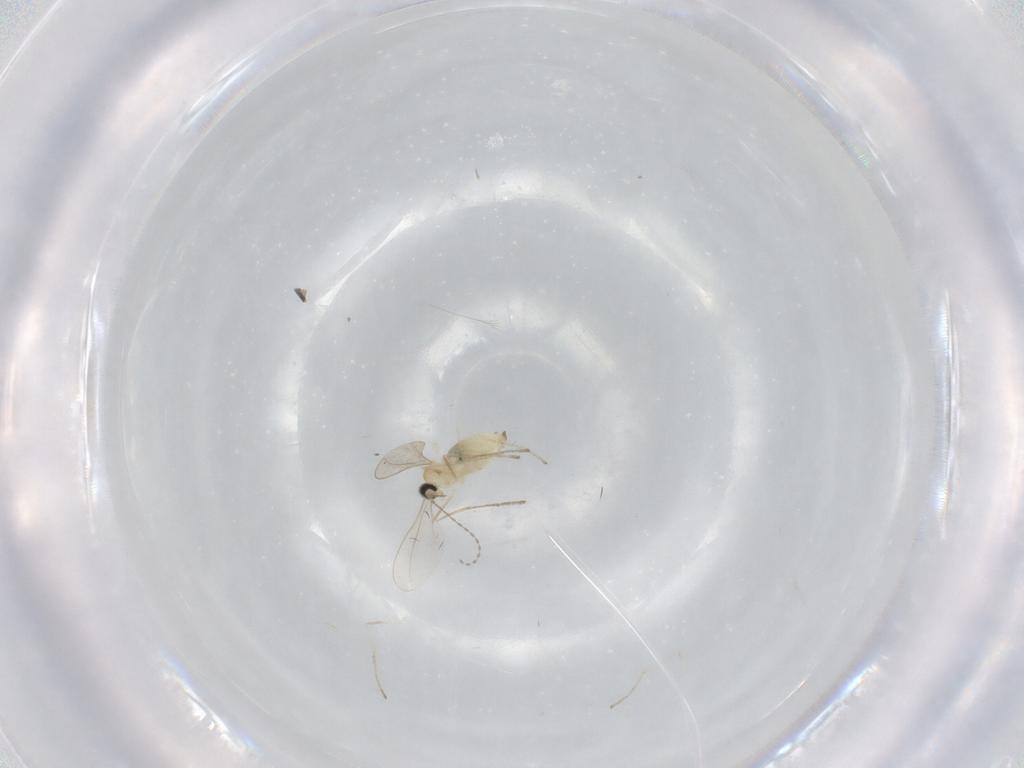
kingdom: Animalia
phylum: Arthropoda
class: Insecta
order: Diptera
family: Cecidomyiidae
